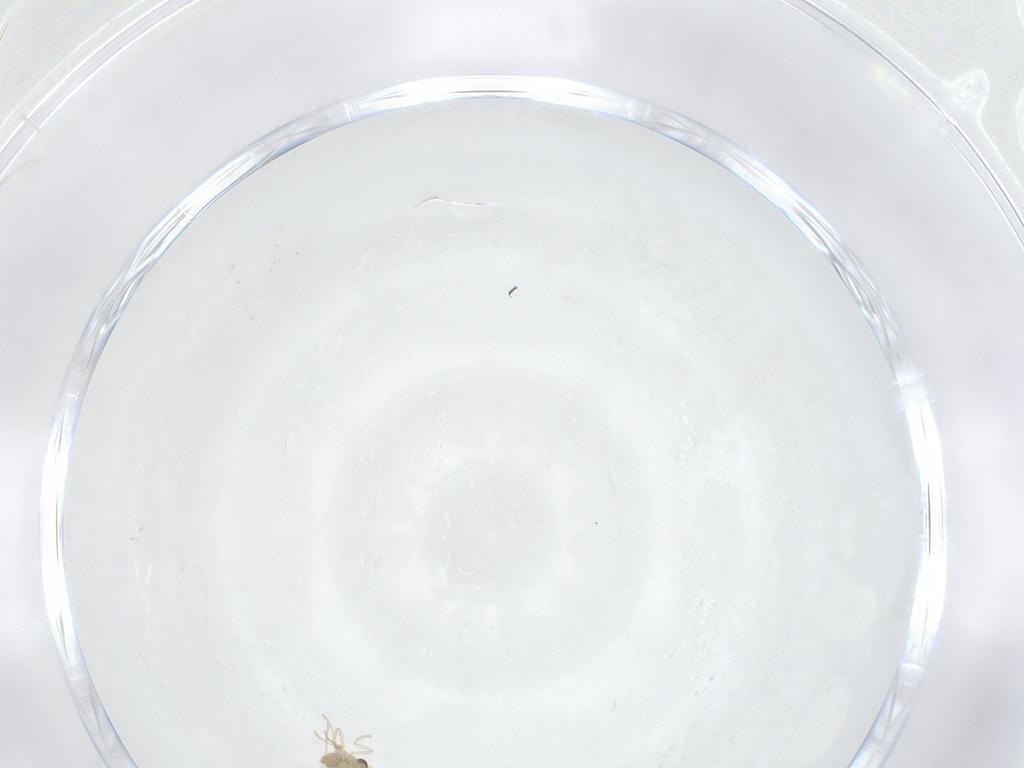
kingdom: Animalia
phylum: Arthropoda
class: Insecta
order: Diptera
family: Cecidomyiidae
